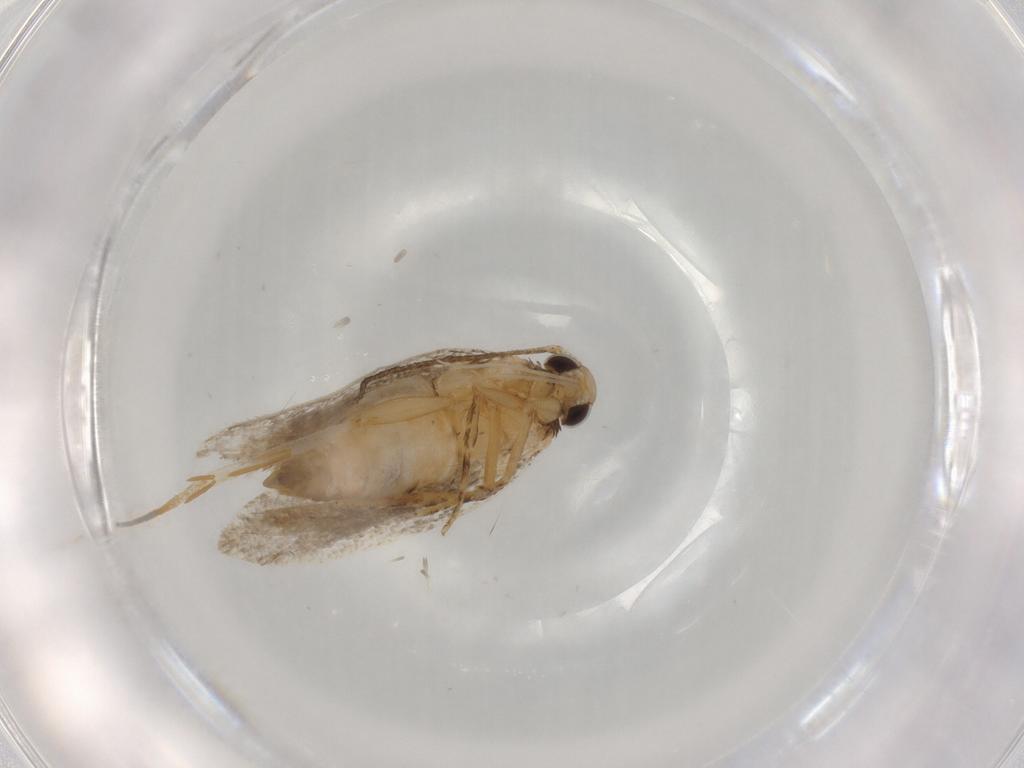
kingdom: Animalia
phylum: Arthropoda
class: Insecta
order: Lepidoptera
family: Autostichidae
